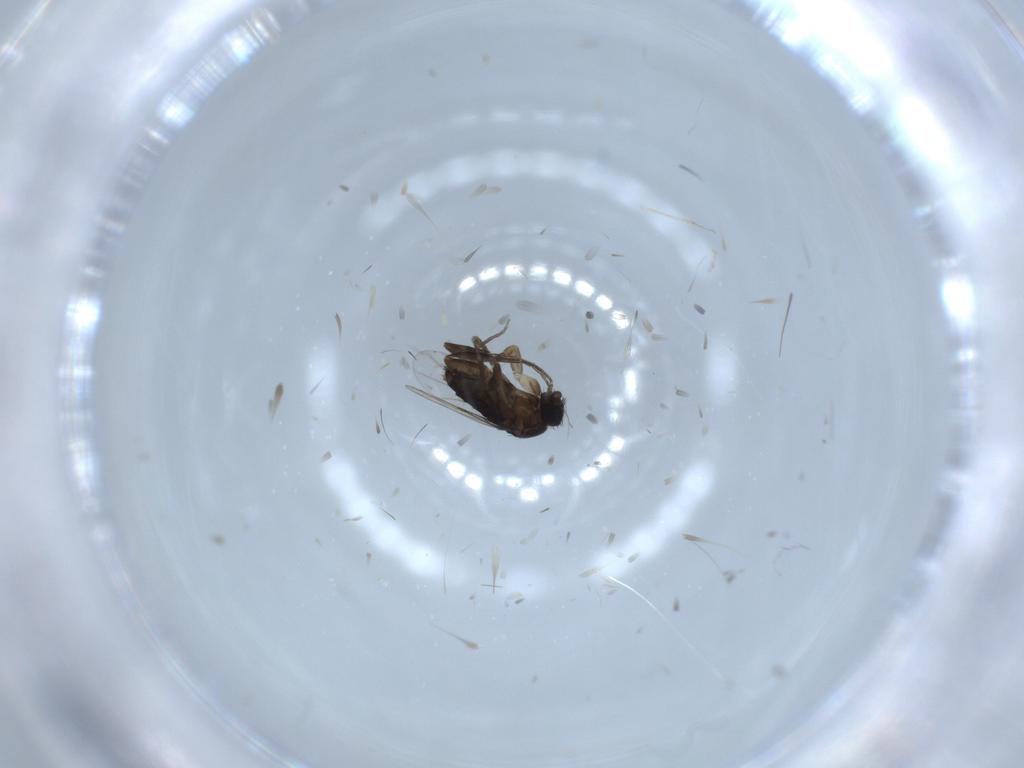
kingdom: Animalia
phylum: Arthropoda
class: Insecta
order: Diptera
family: Phoridae
